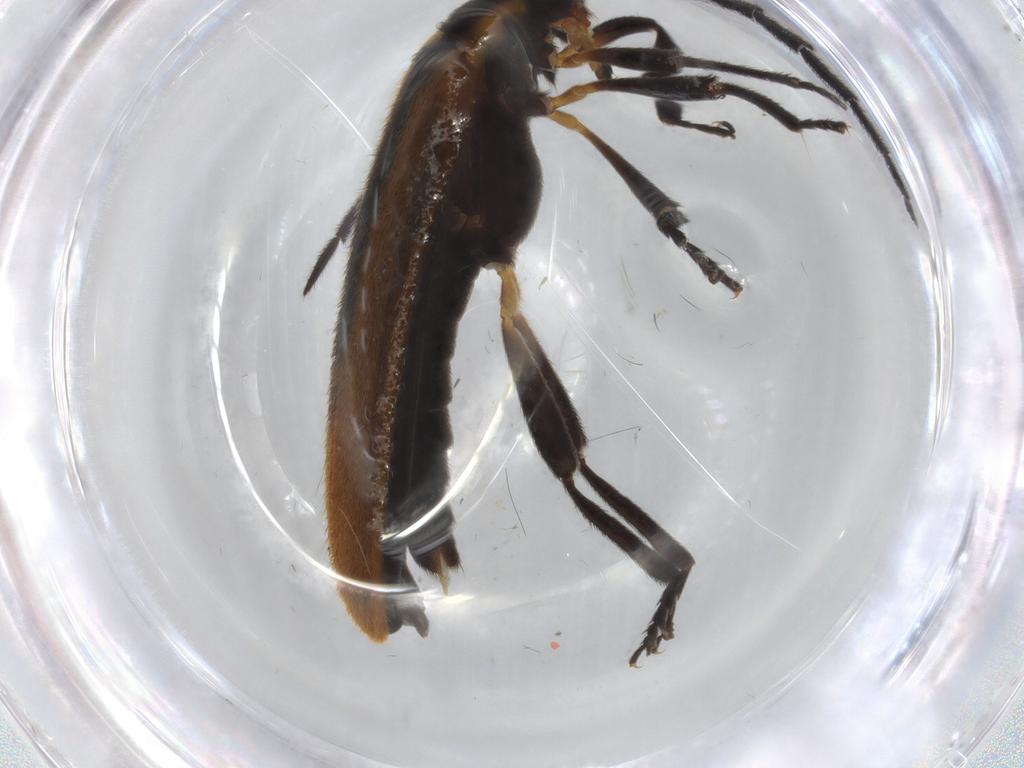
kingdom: Animalia
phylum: Arthropoda
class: Insecta
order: Coleoptera
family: Lycidae
